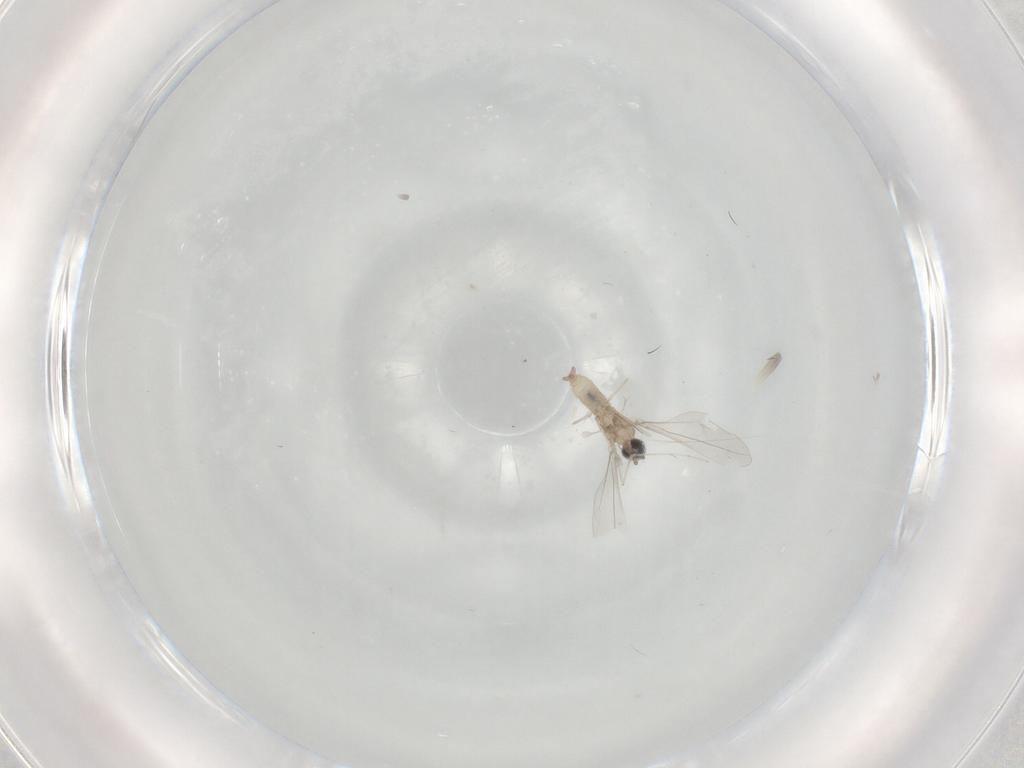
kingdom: Animalia
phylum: Arthropoda
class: Insecta
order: Diptera
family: Cecidomyiidae
